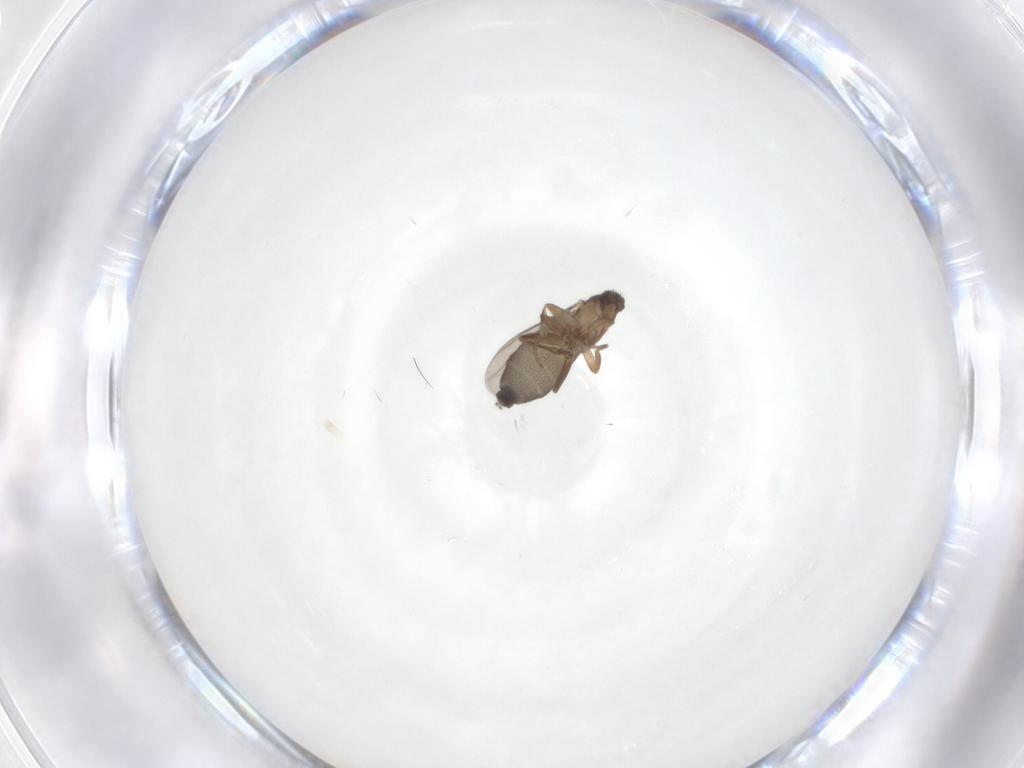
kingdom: Animalia
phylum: Arthropoda
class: Insecta
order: Diptera
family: Phoridae
